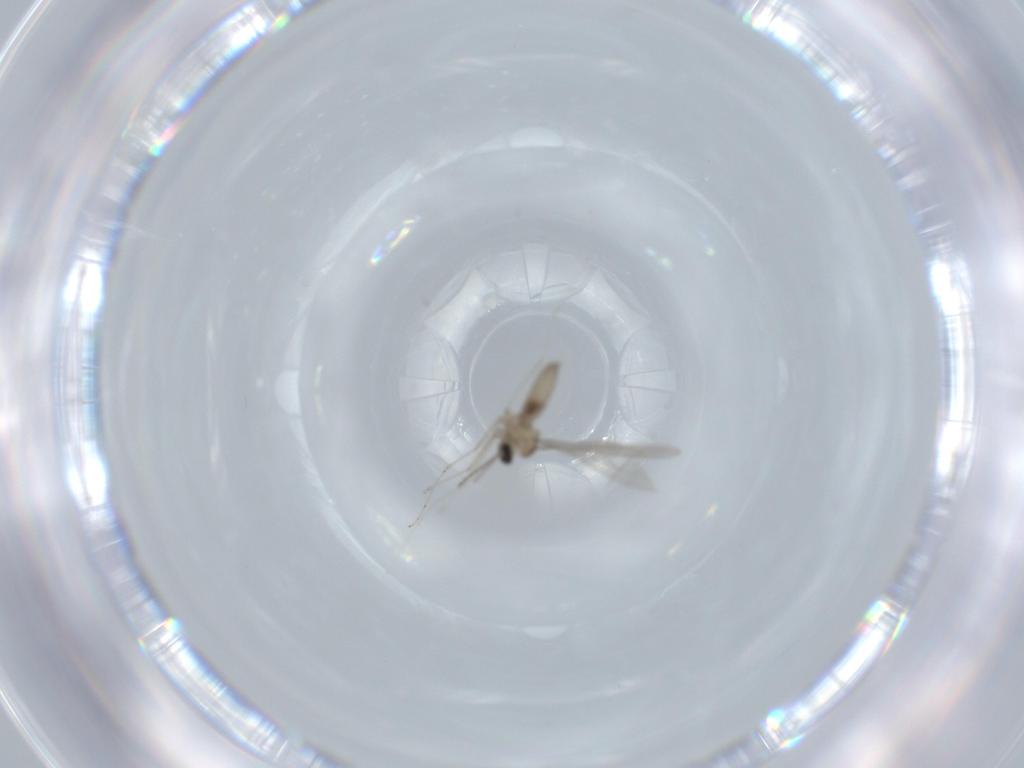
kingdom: Animalia
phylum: Arthropoda
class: Insecta
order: Diptera
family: Cecidomyiidae
